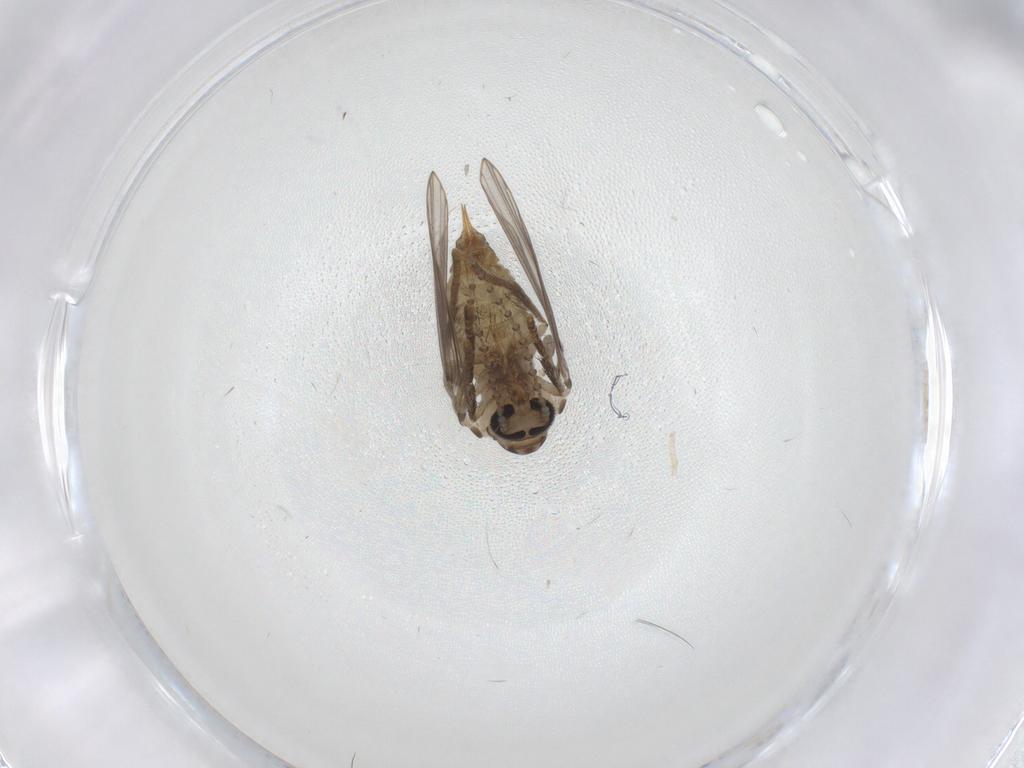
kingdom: Animalia
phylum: Arthropoda
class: Insecta
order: Diptera
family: Psychodidae
